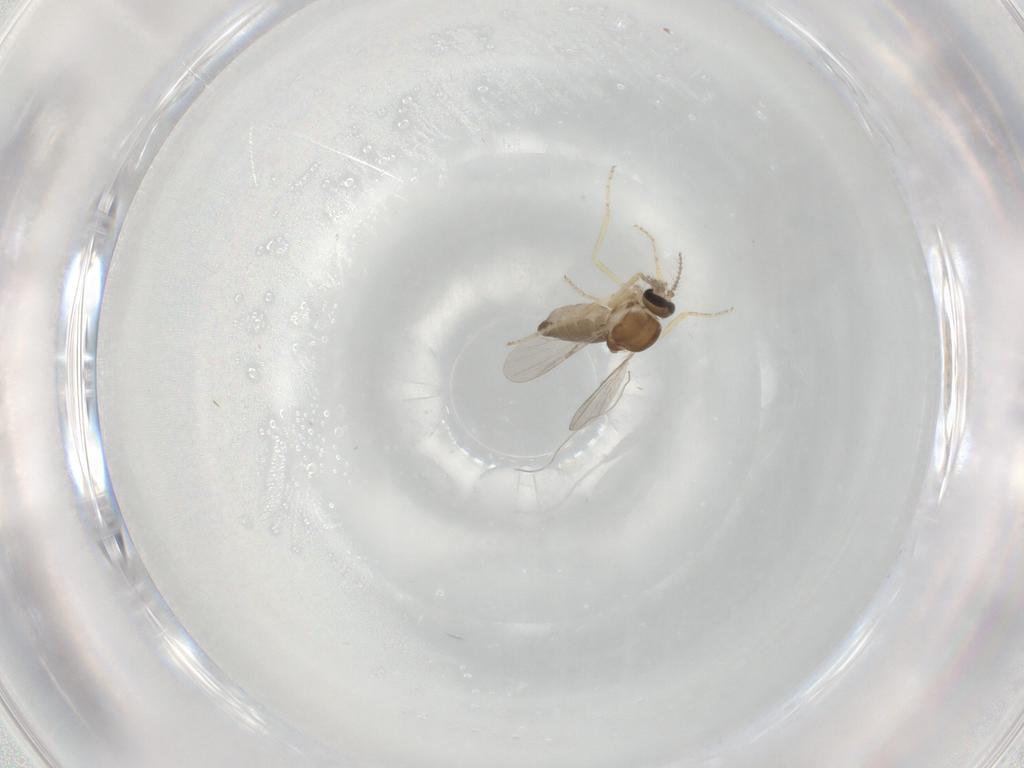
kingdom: Animalia
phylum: Arthropoda
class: Insecta
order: Diptera
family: Ceratopogonidae
